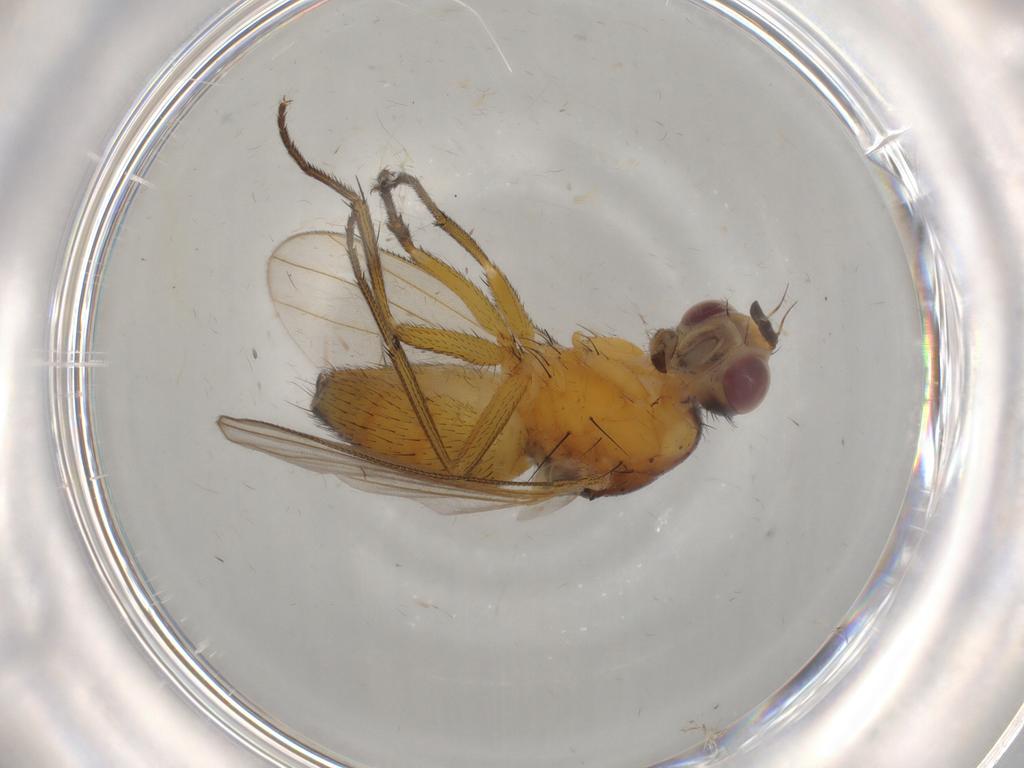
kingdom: Animalia
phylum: Arthropoda
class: Insecta
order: Diptera
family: Muscidae
